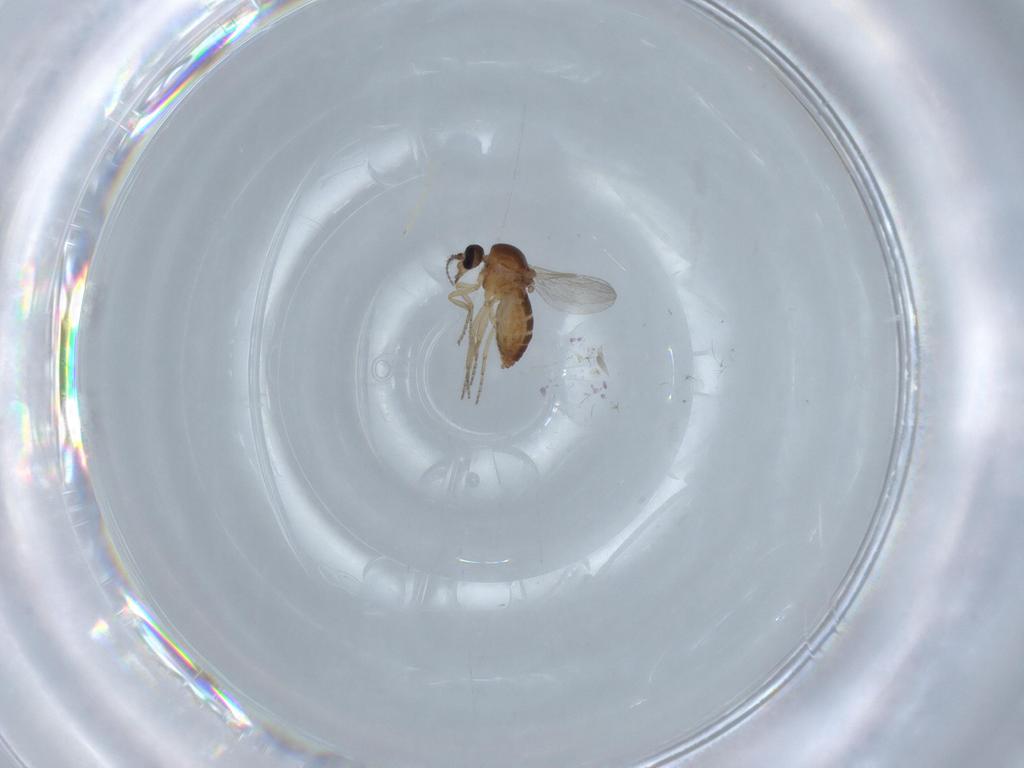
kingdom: Animalia
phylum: Arthropoda
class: Insecta
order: Diptera
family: Ceratopogonidae
